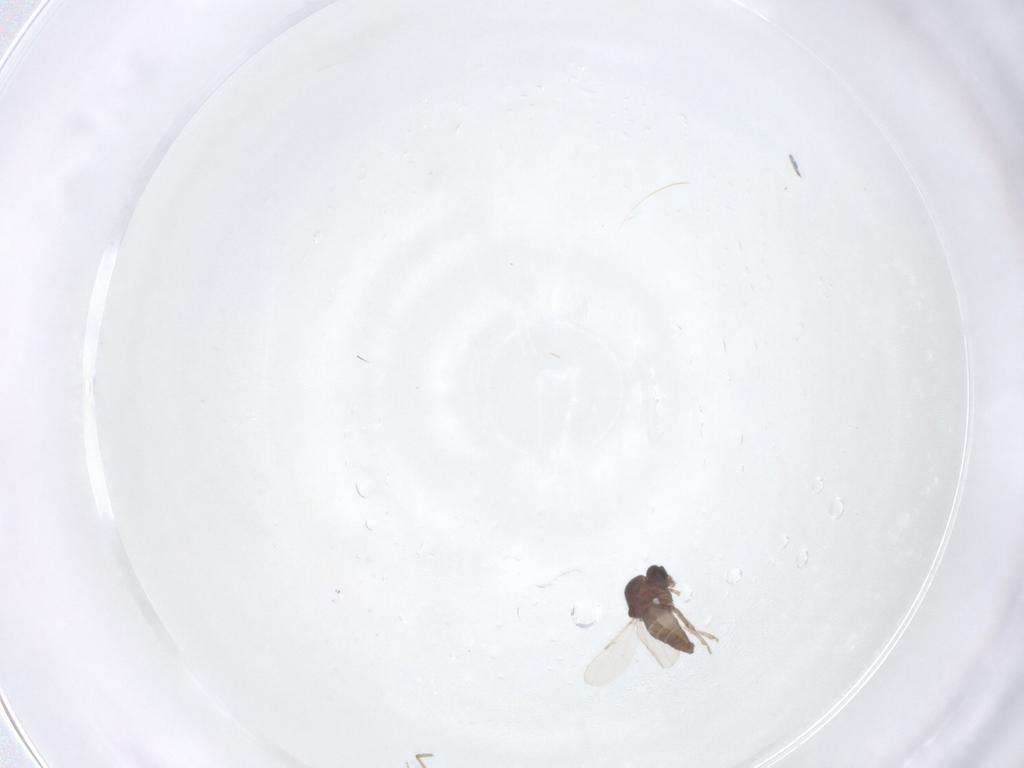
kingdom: Animalia
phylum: Arthropoda
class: Insecta
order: Diptera
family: Ceratopogonidae
